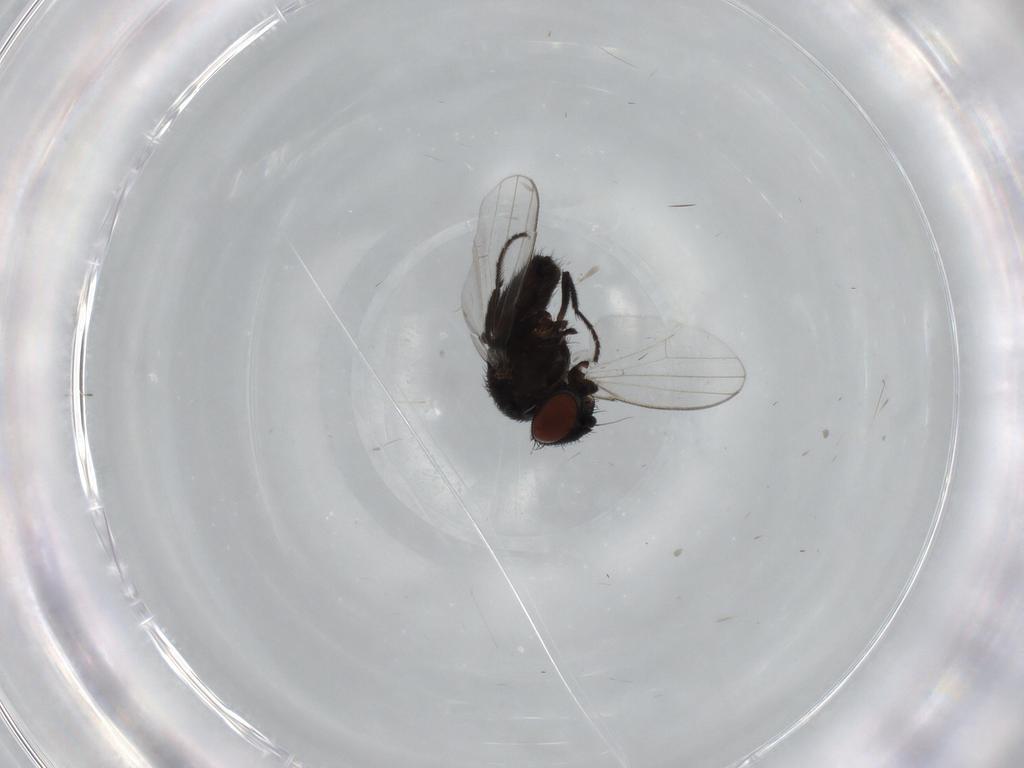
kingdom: Animalia
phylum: Arthropoda
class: Insecta
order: Diptera
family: Milichiidae
